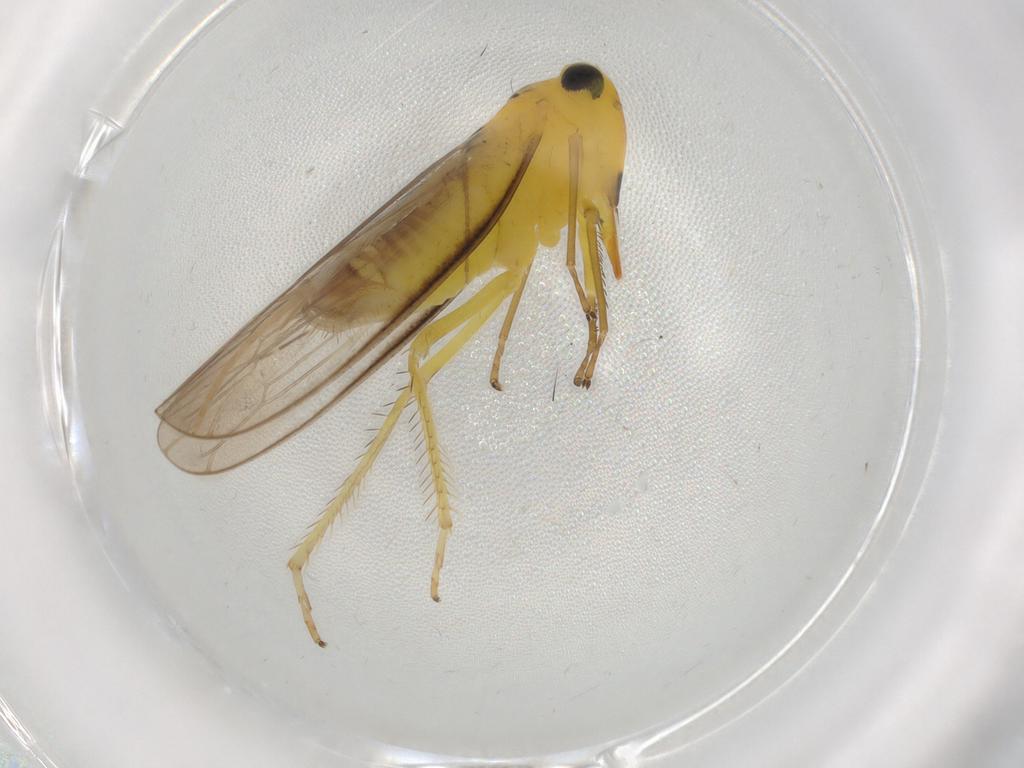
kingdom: Animalia
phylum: Arthropoda
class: Insecta
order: Hemiptera
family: Cicadellidae
